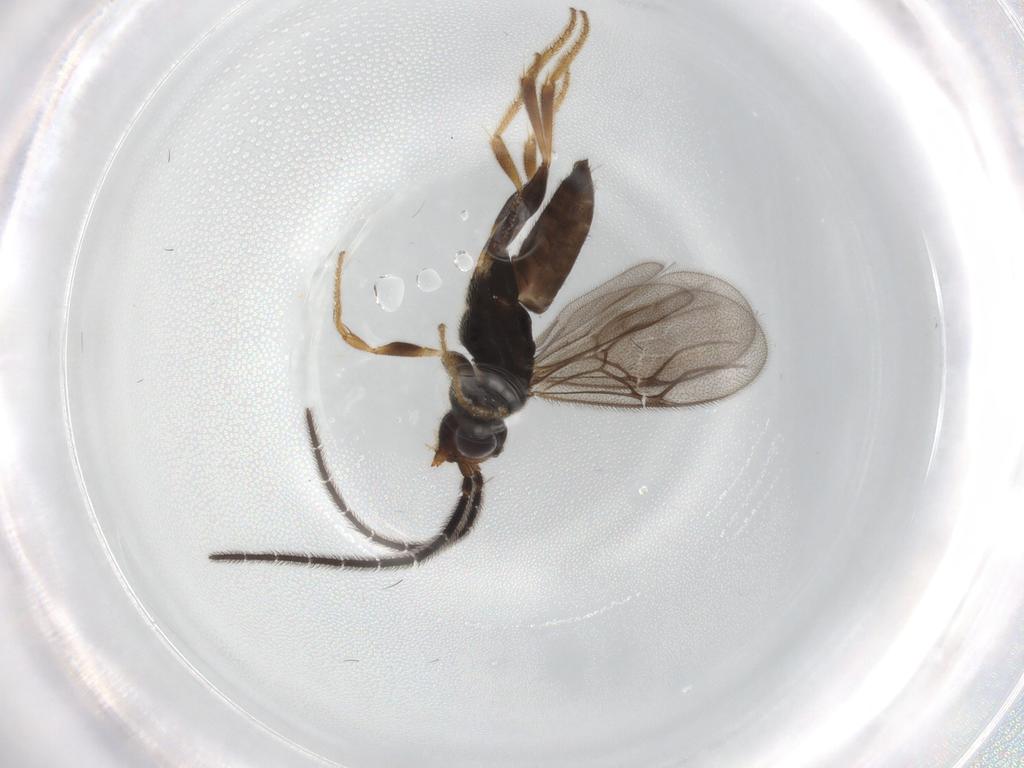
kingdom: Animalia
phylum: Arthropoda
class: Insecta
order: Hymenoptera
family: Dryinidae
